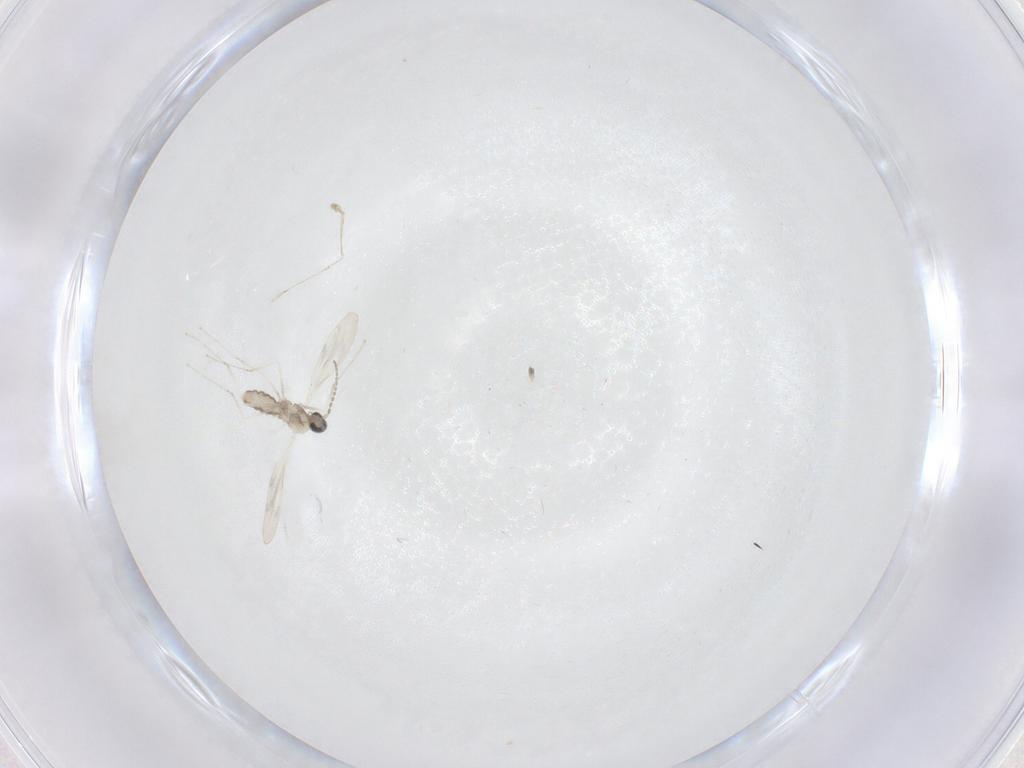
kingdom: Animalia
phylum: Arthropoda
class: Insecta
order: Diptera
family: Cecidomyiidae
